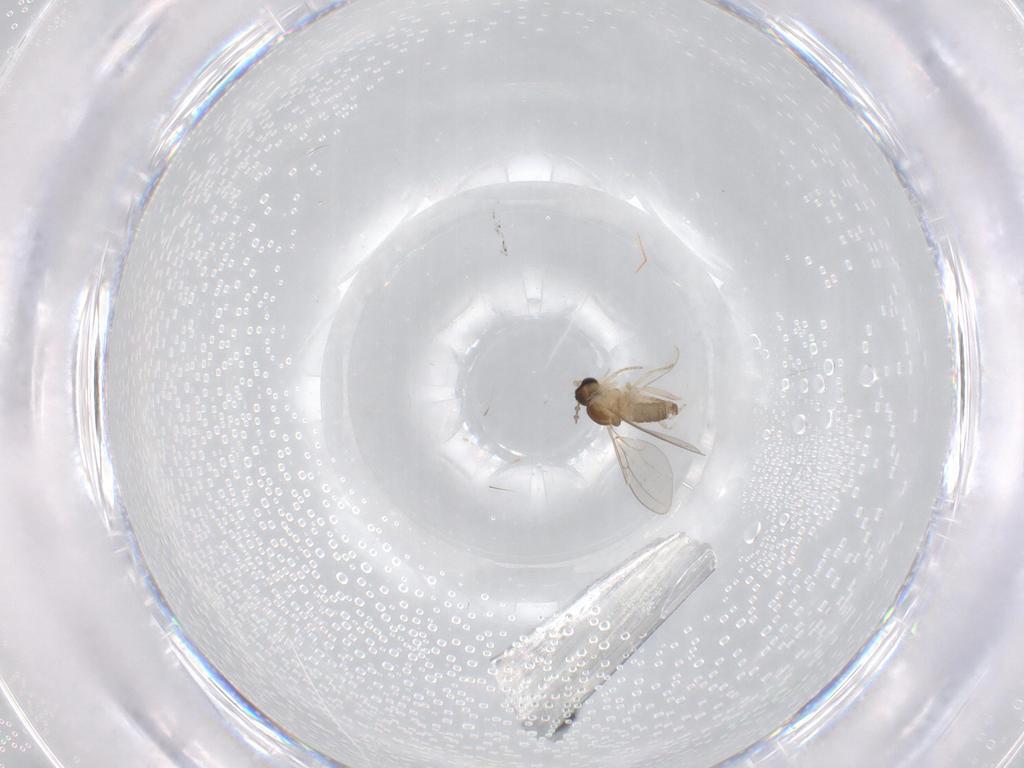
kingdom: Animalia
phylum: Arthropoda
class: Insecta
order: Diptera
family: Cecidomyiidae
